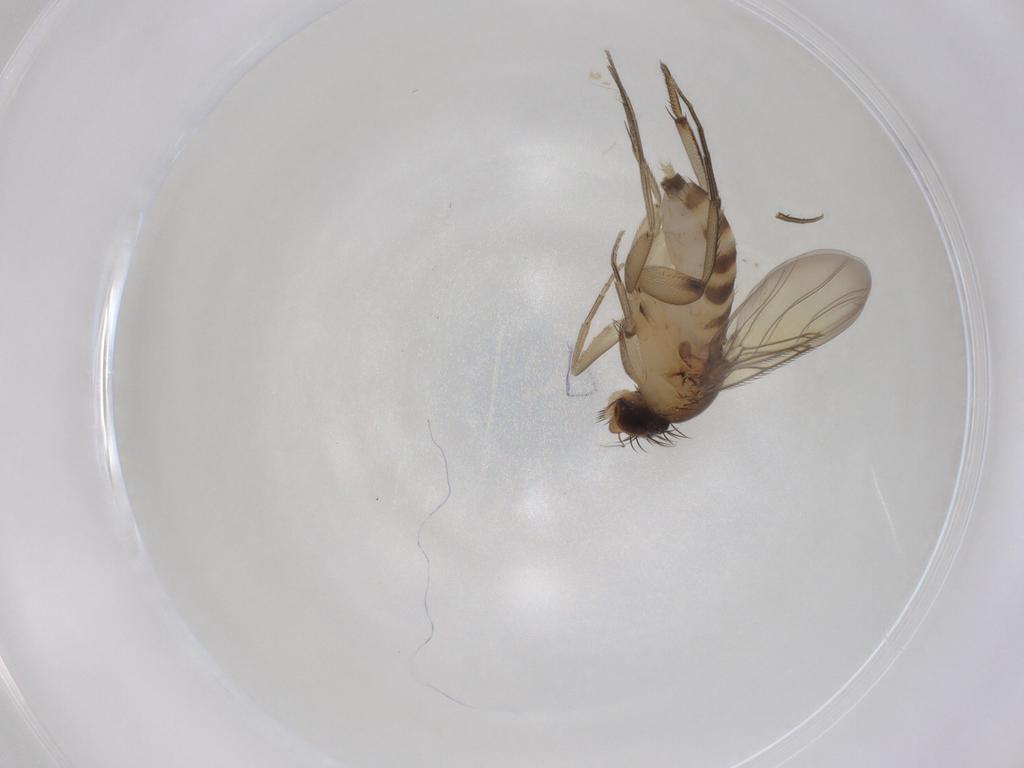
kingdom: Animalia
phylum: Arthropoda
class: Insecta
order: Diptera
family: Phoridae
